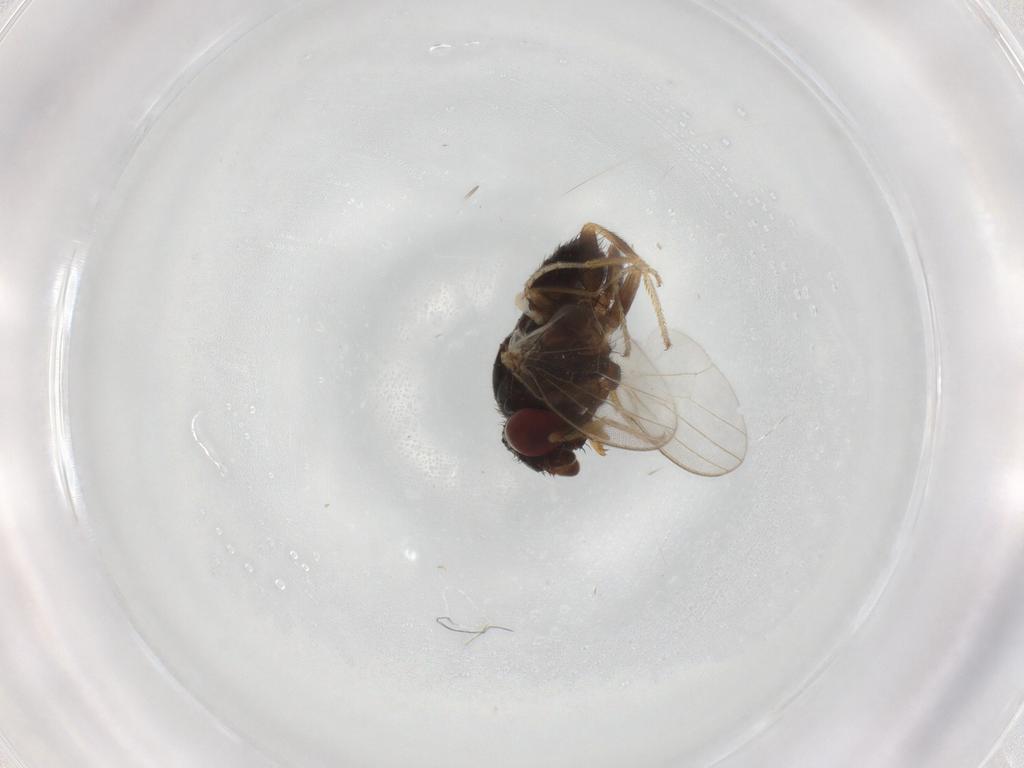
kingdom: Animalia
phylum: Arthropoda
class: Insecta
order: Diptera
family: Milichiidae
